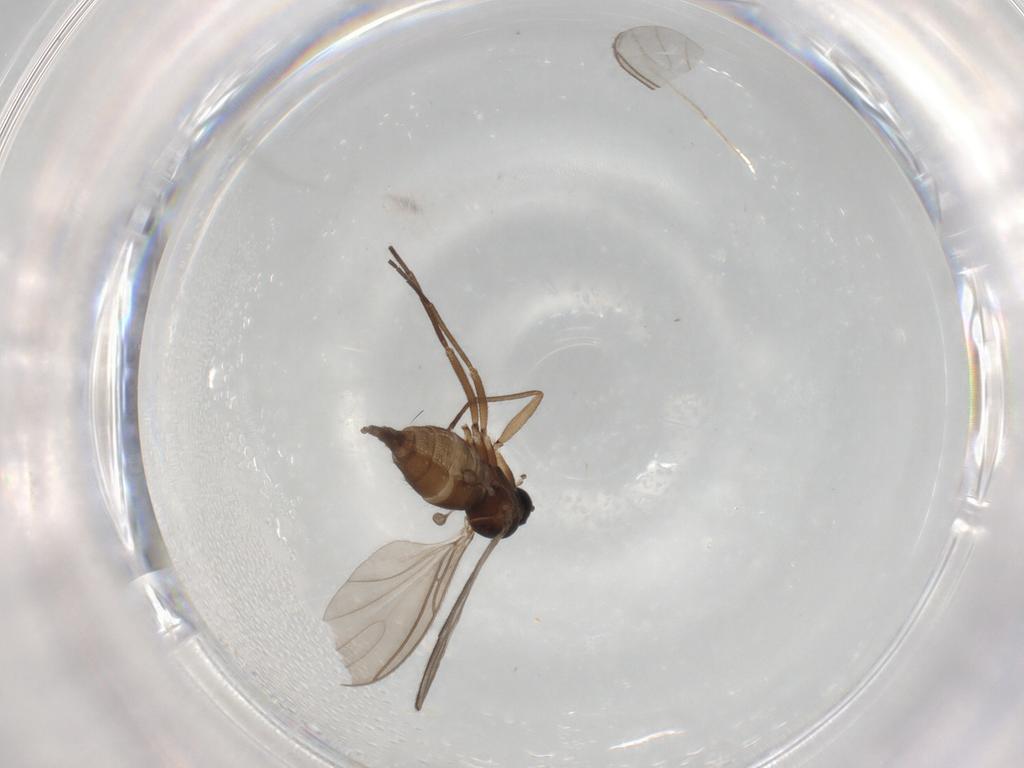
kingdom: Animalia
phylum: Arthropoda
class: Insecta
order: Diptera
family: Sciaridae
